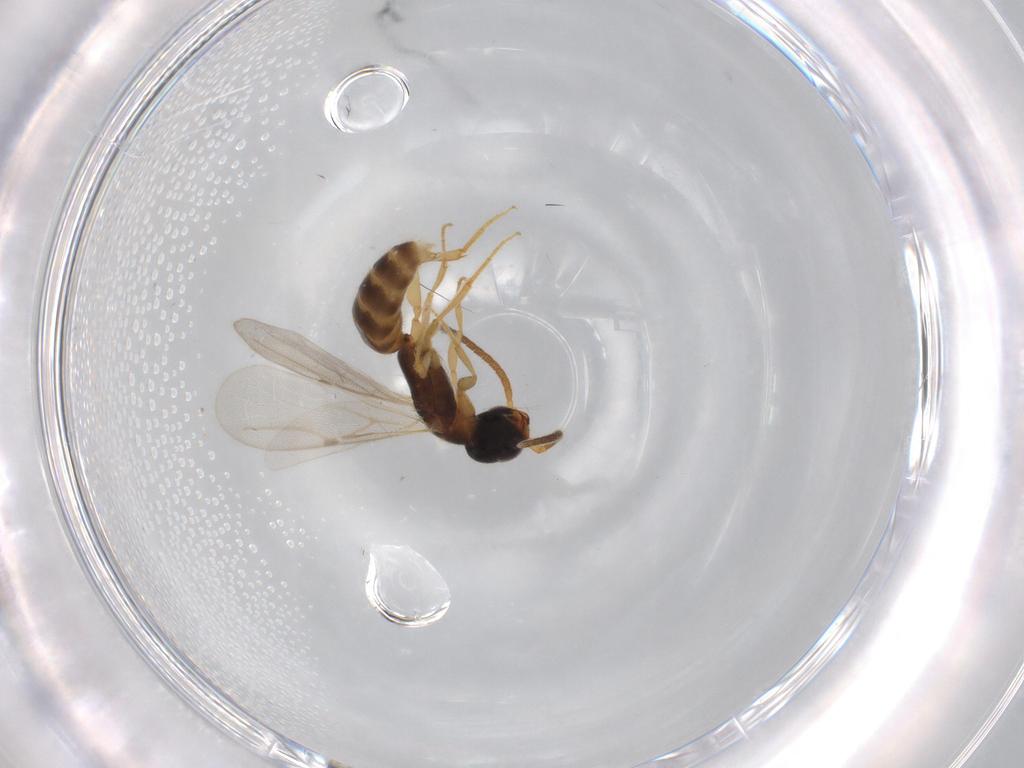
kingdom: Animalia
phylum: Arthropoda
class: Insecta
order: Hymenoptera
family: Bethylidae
